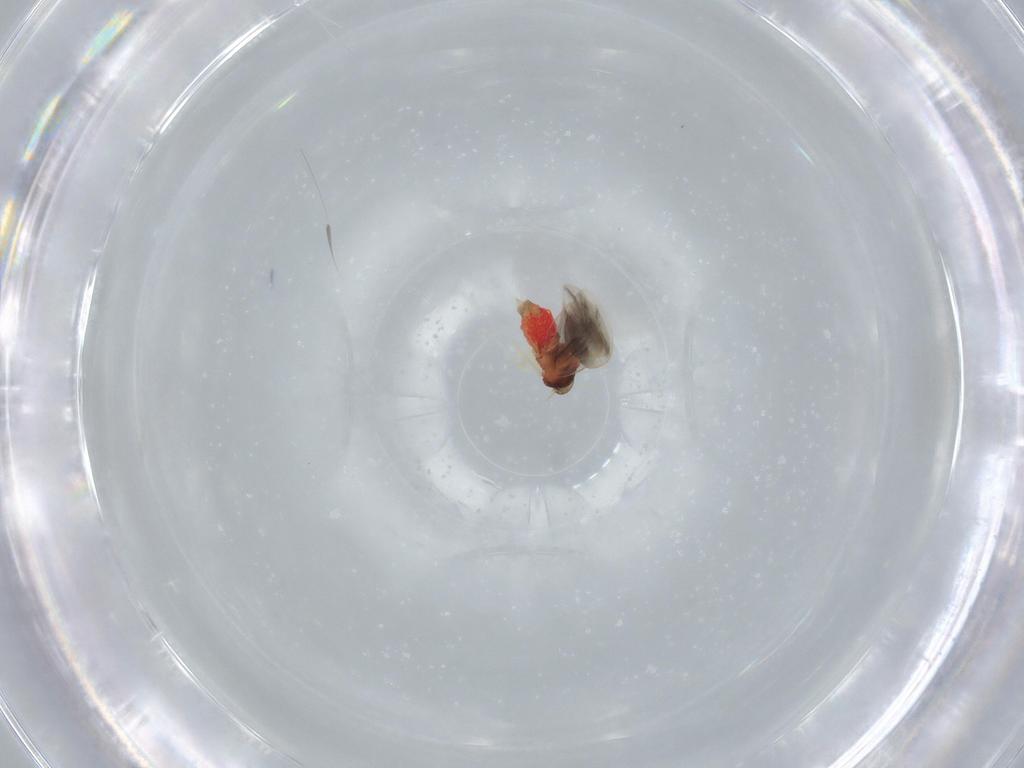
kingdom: Animalia
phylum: Arthropoda
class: Insecta
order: Hemiptera
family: Aleyrodidae
